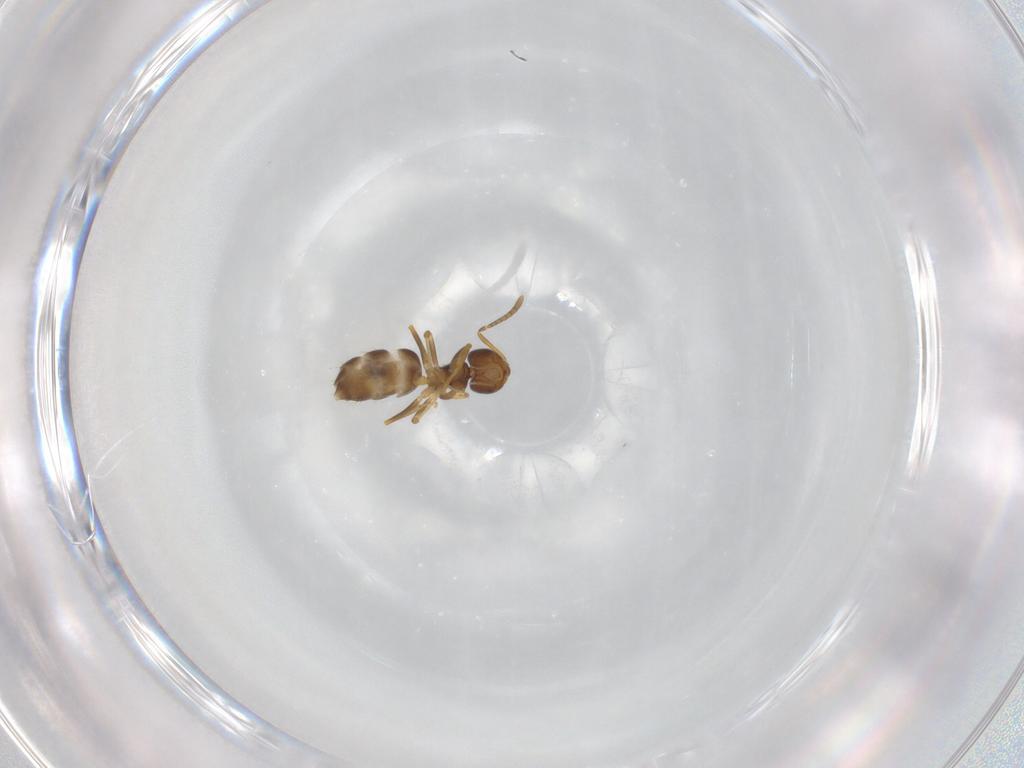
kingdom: Animalia
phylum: Arthropoda
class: Insecta
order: Hymenoptera
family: Formicidae
